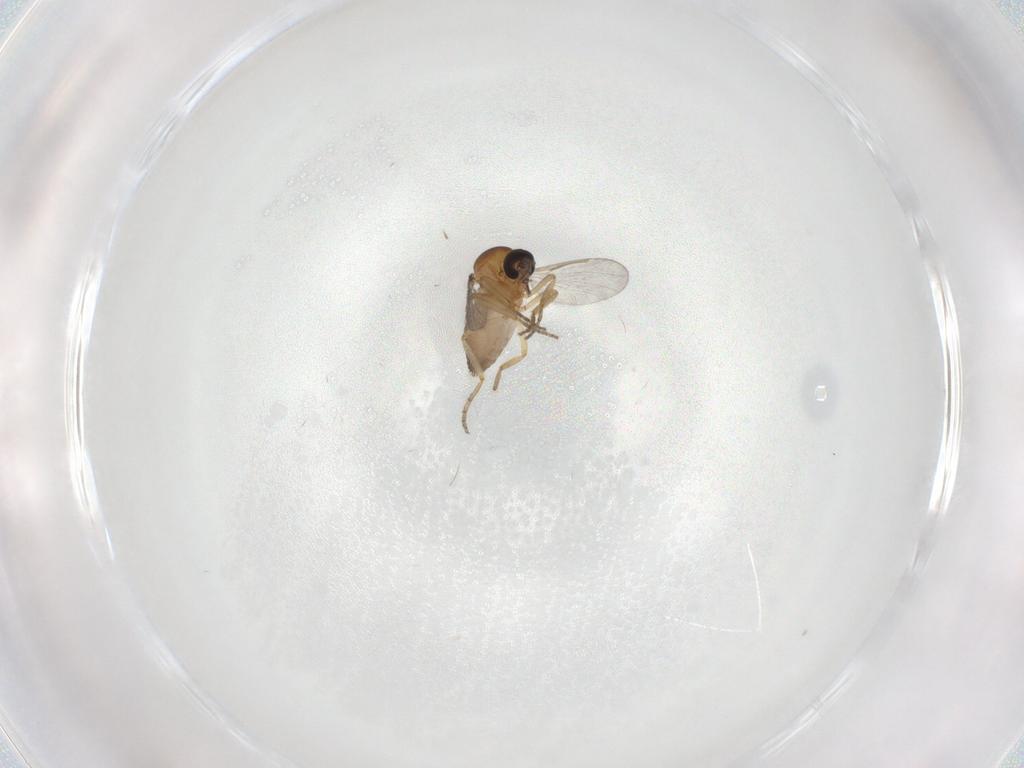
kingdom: Animalia
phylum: Arthropoda
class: Insecta
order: Diptera
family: Ceratopogonidae
